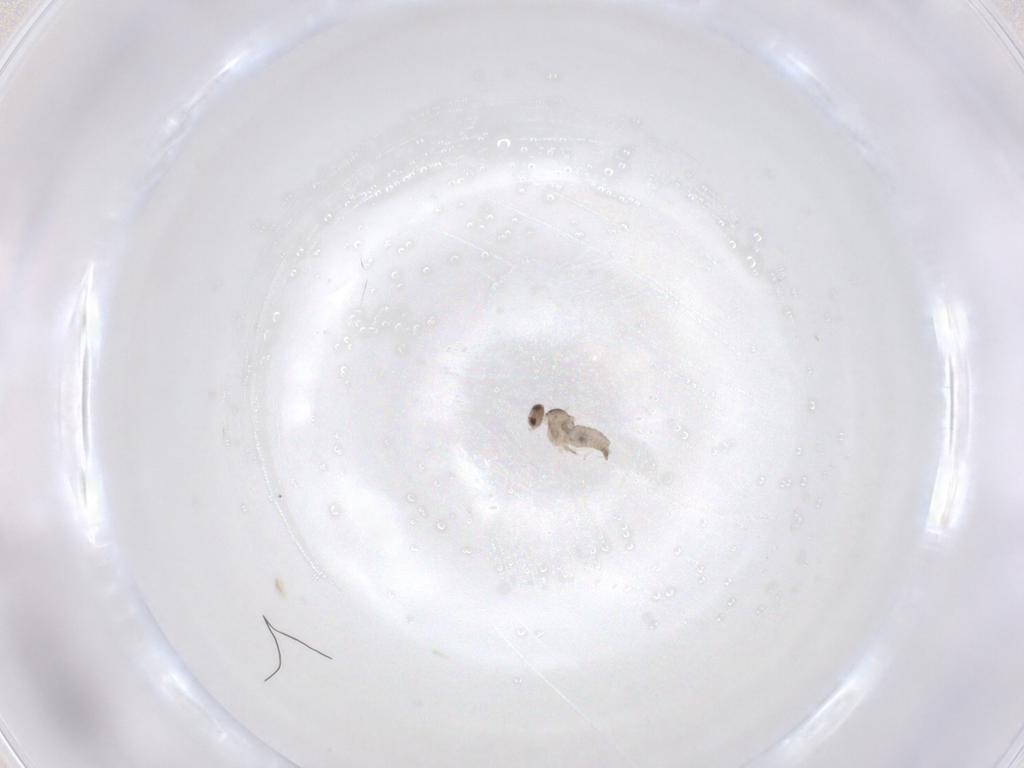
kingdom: Animalia
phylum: Arthropoda
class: Insecta
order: Diptera
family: Cecidomyiidae
